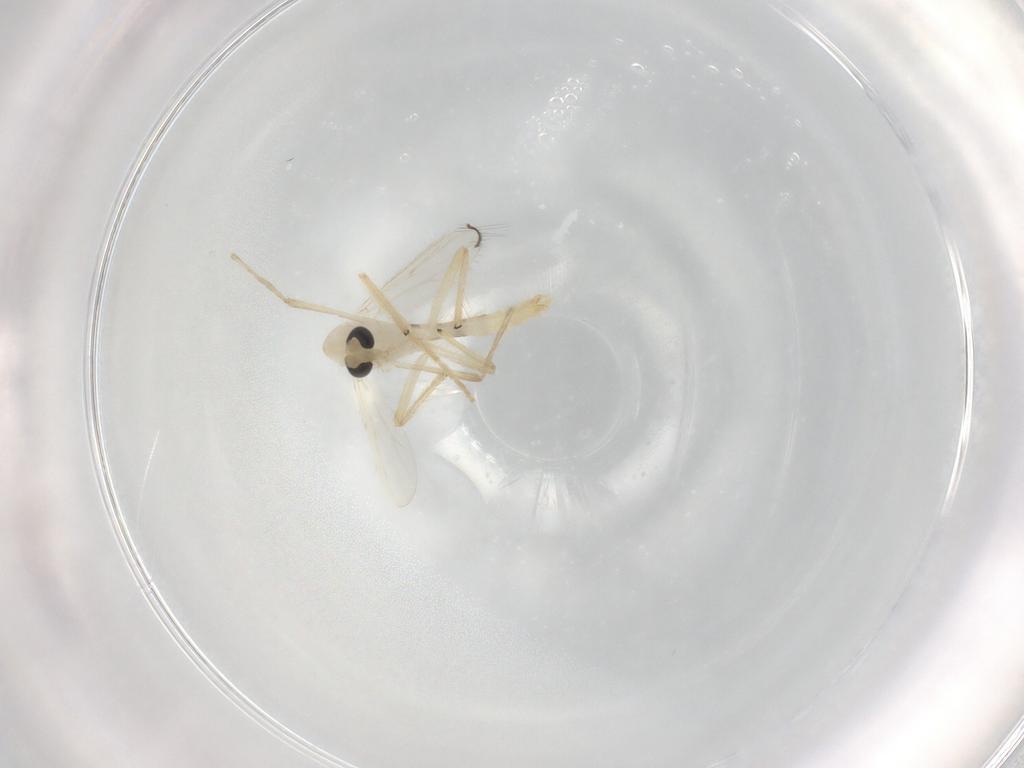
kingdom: Animalia
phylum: Arthropoda
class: Insecta
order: Diptera
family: Chironomidae
